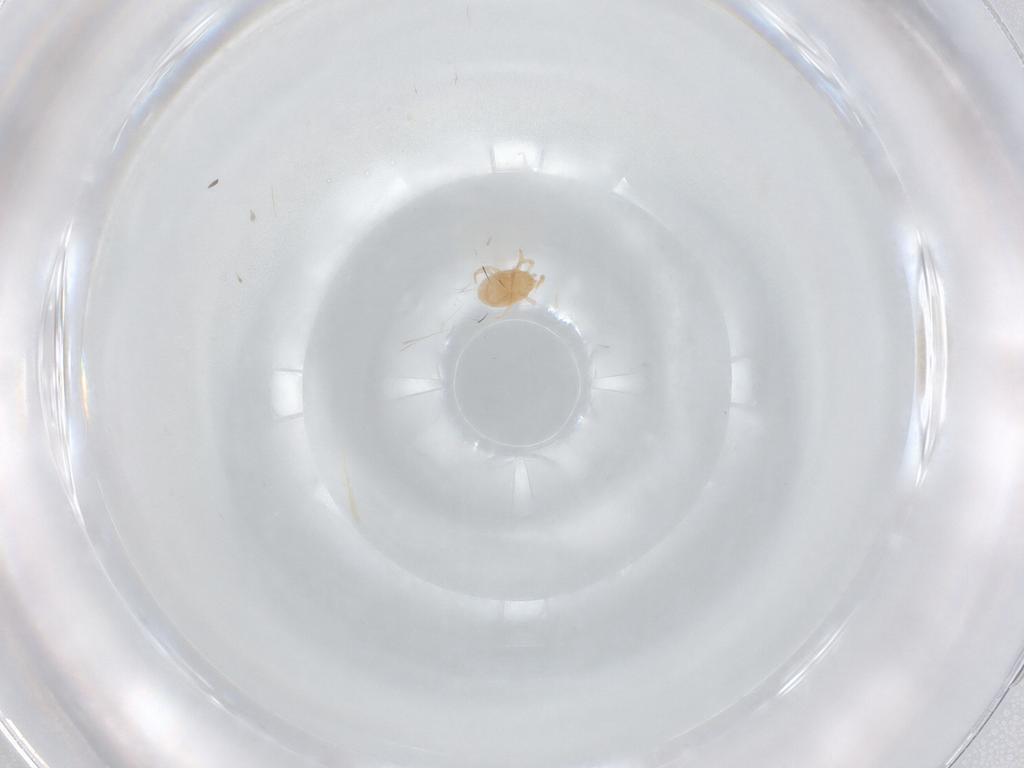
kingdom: Animalia
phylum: Arthropoda
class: Arachnida
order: Mesostigmata
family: Melicharidae
